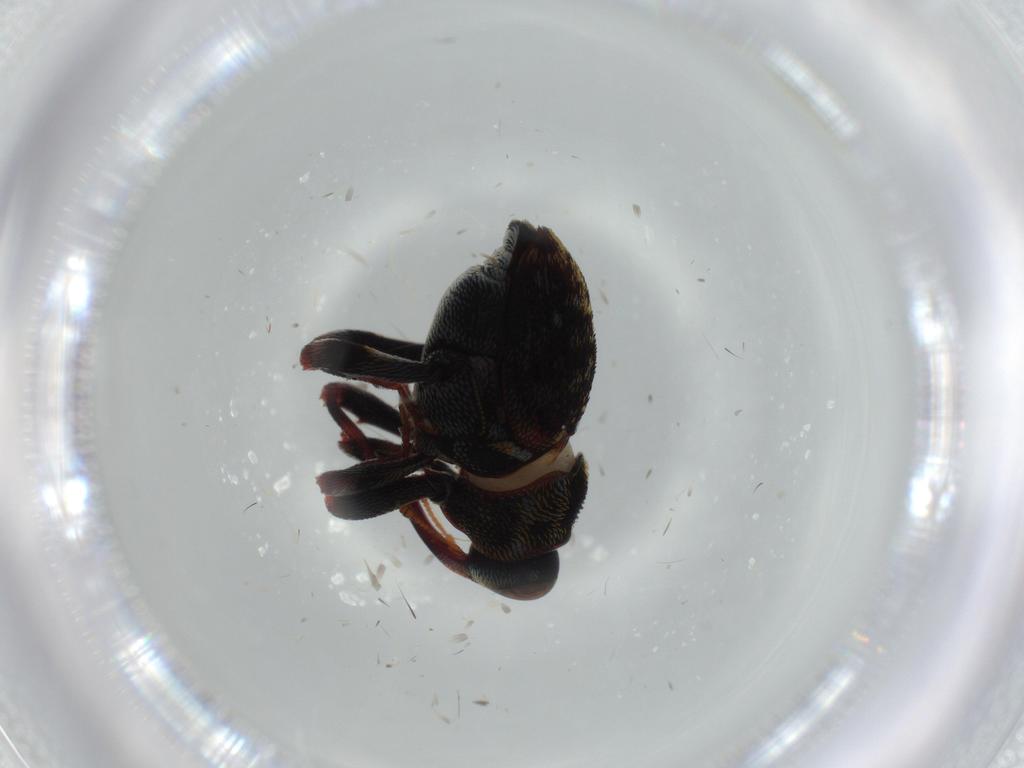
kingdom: Animalia
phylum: Arthropoda
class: Insecta
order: Coleoptera
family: Curculionidae
